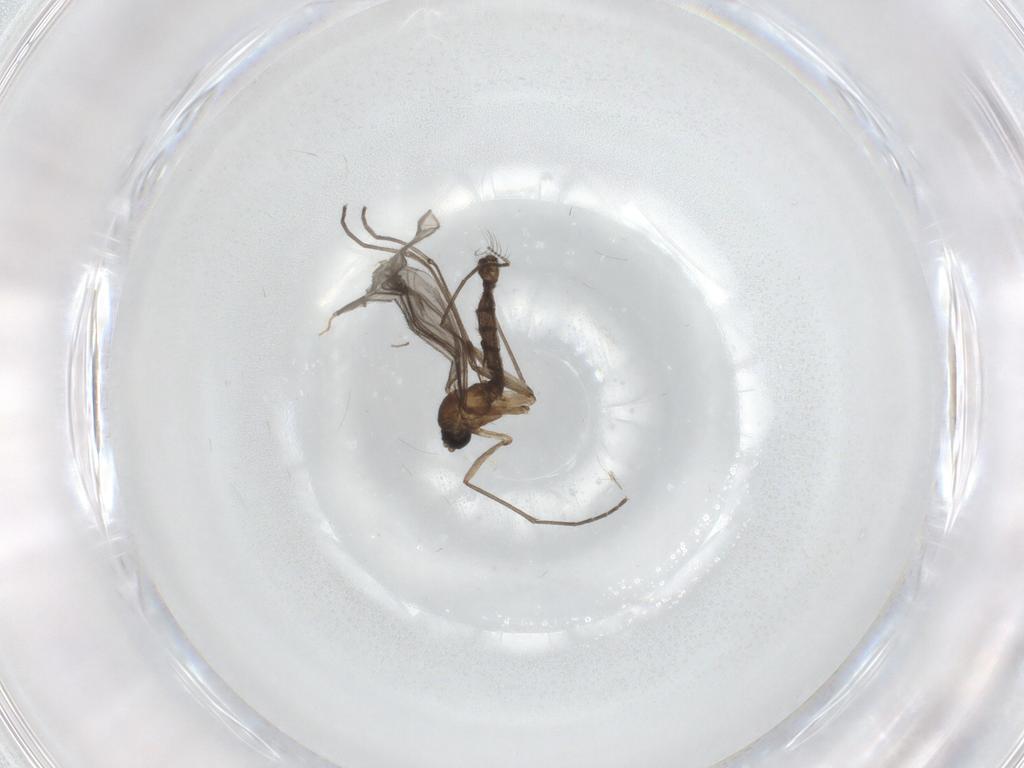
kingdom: Animalia
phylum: Arthropoda
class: Insecta
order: Diptera
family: Sciaridae
